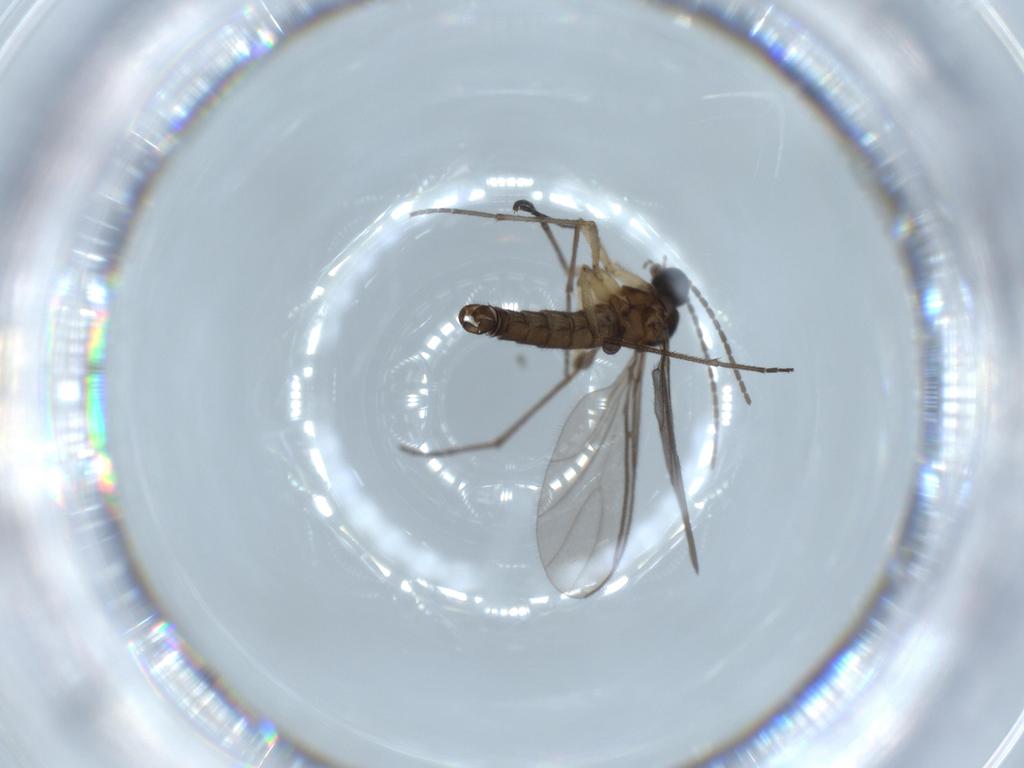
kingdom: Animalia
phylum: Arthropoda
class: Insecta
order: Diptera
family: Sciaridae
